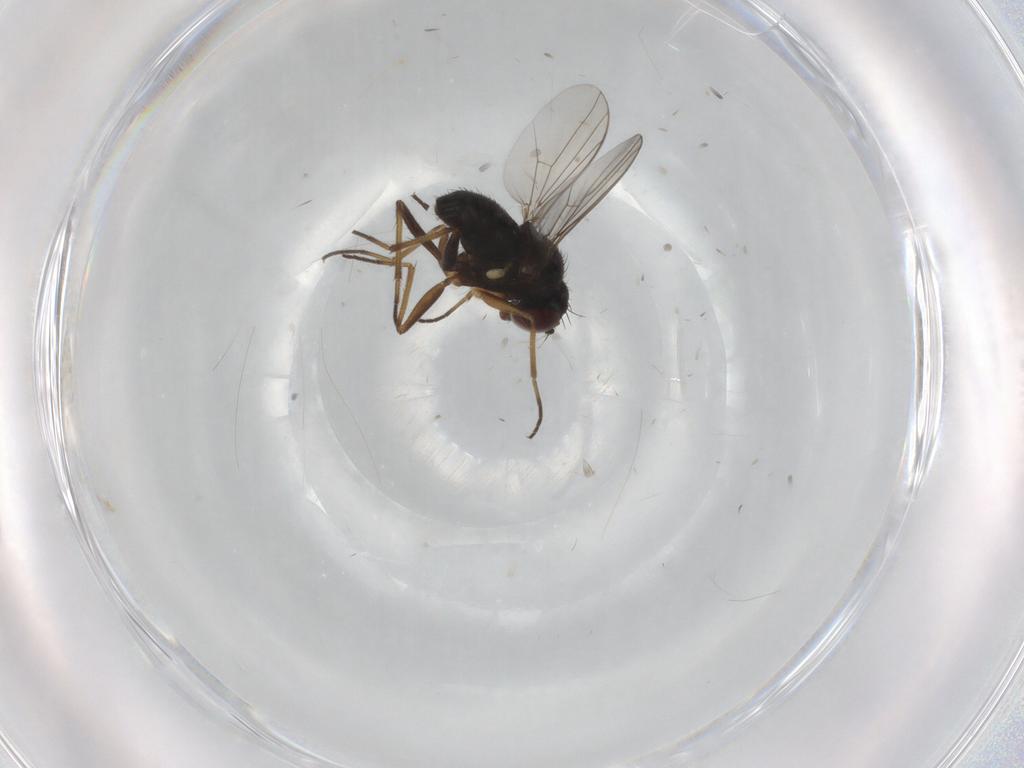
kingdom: Animalia
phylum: Arthropoda
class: Insecta
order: Diptera
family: Dolichopodidae
